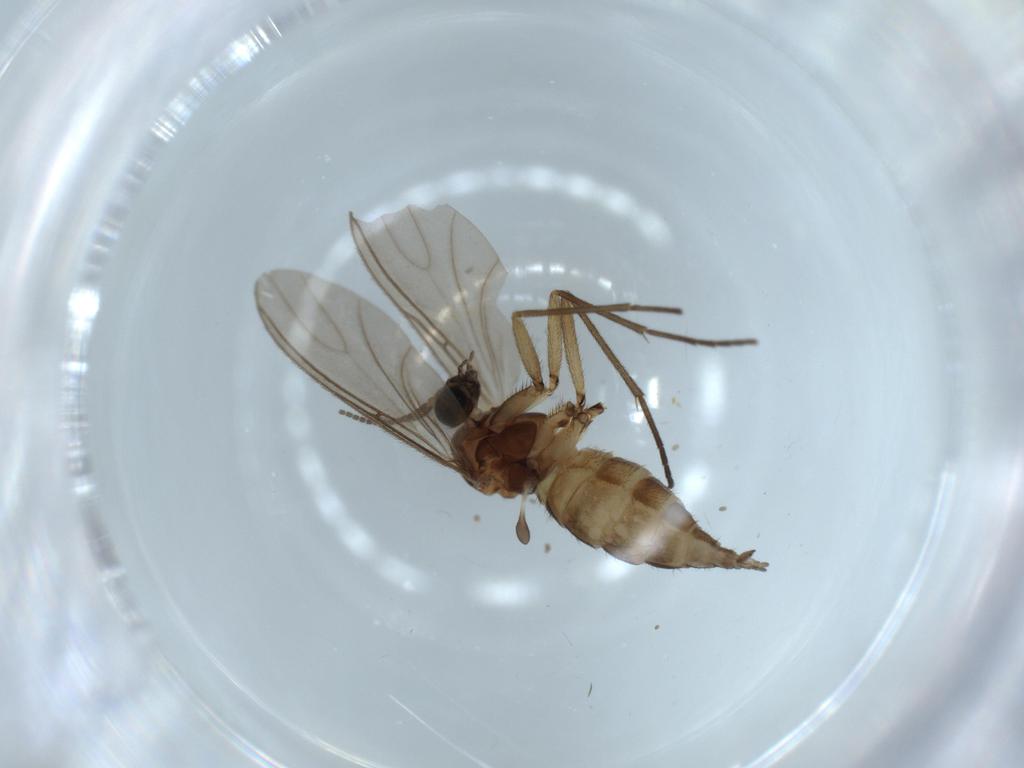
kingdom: Animalia
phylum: Arthropoda
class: Insecta
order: Diptera
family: Sciaridae
